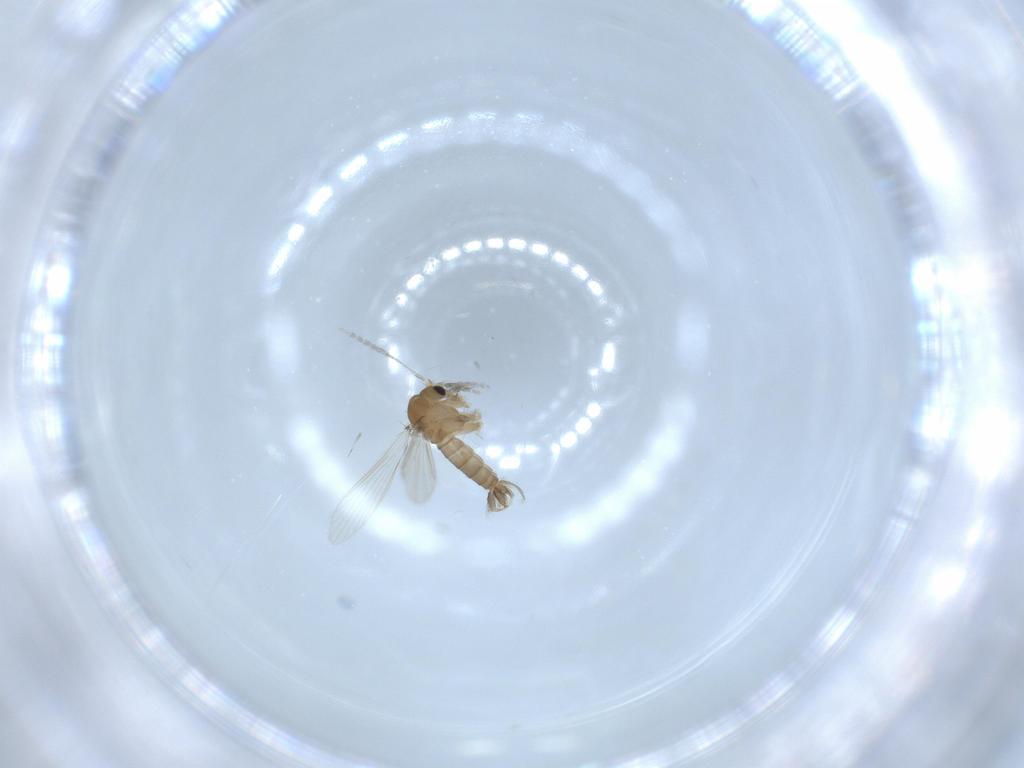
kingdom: Animalia
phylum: Arthropoda
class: Insecta
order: Diptera
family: Psychodidae
